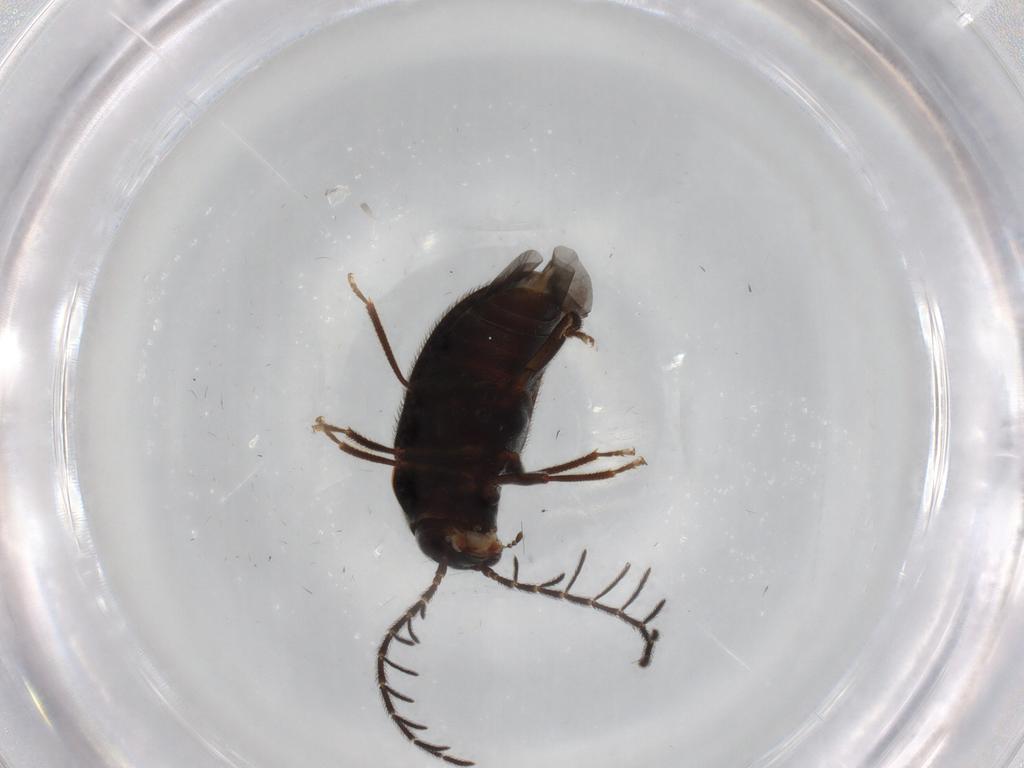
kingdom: Animalia
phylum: Arthropoda
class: Insecta
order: Coleoptera
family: Ptilodactylidae
